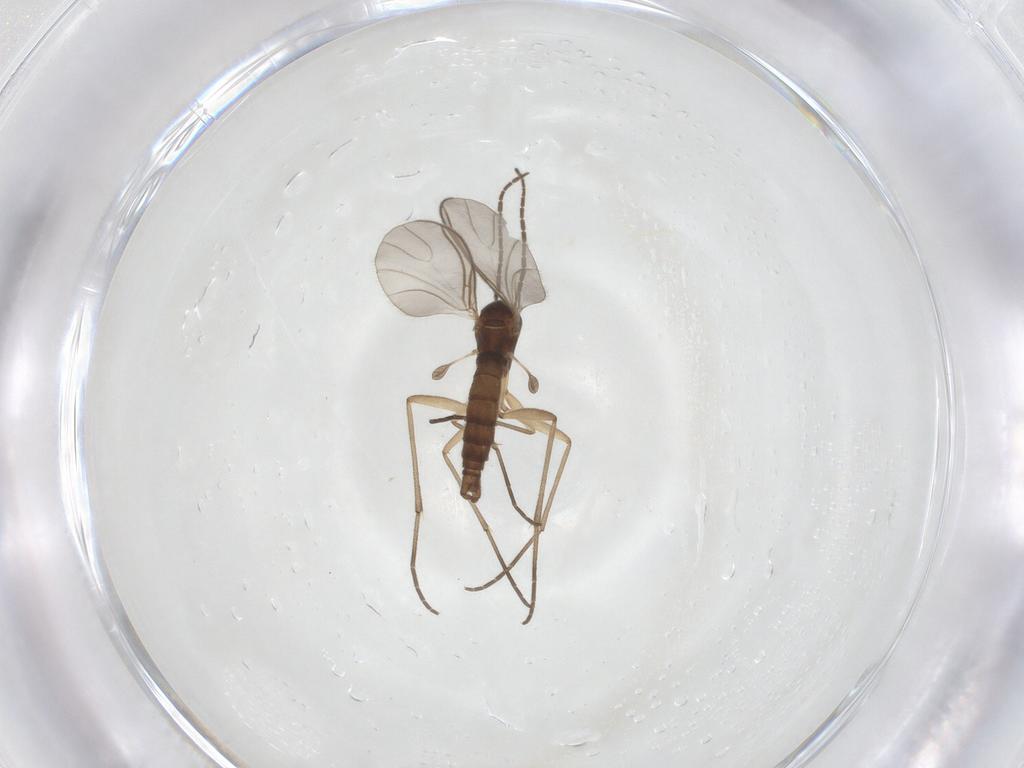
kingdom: Animalia
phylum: Arthropoda
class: Insecta
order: Diptera
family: Sciaridae
